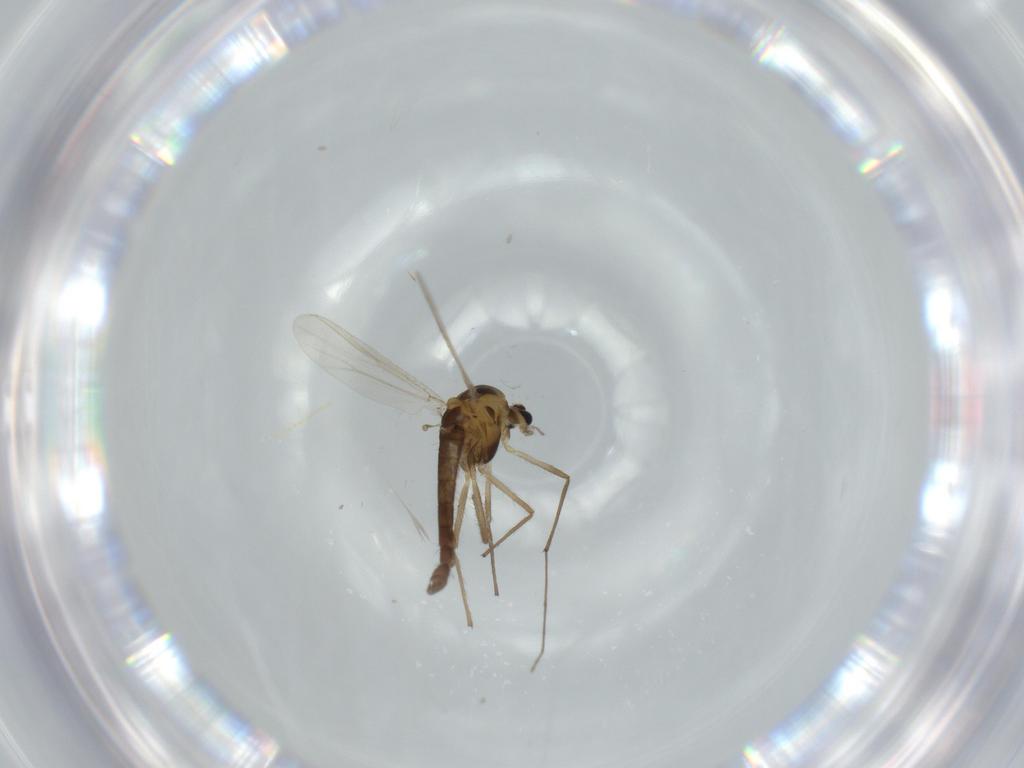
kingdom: Animalia
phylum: Arthropoda
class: Insecta
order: Diptera
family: Chironomidae
